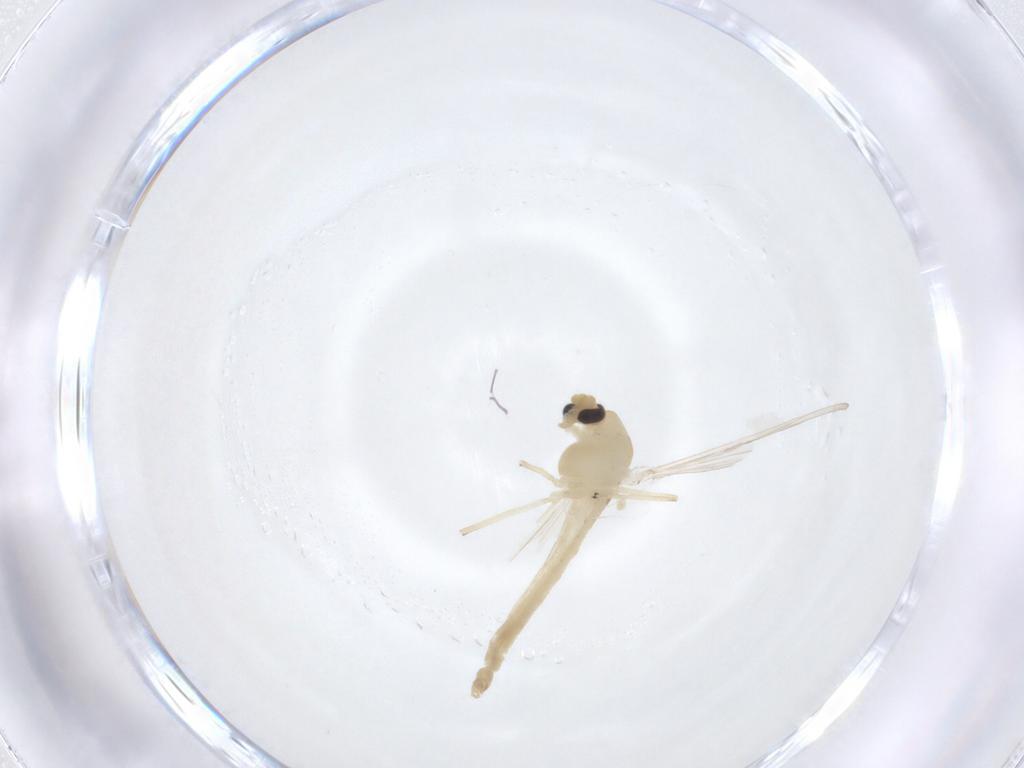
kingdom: Animalia
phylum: Arthropoda
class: Insecta
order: Diptera
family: Chironomidae
